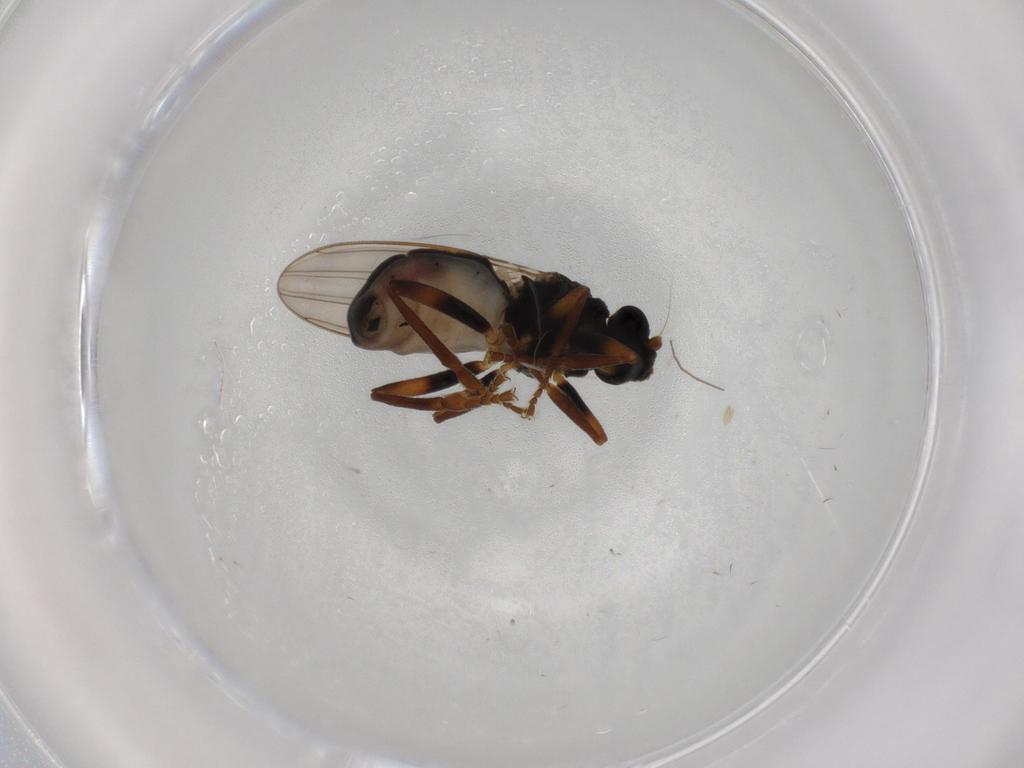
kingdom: Animalia
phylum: Arthropoda
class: Insecta
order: Diptera
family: Sphaeroceridae
